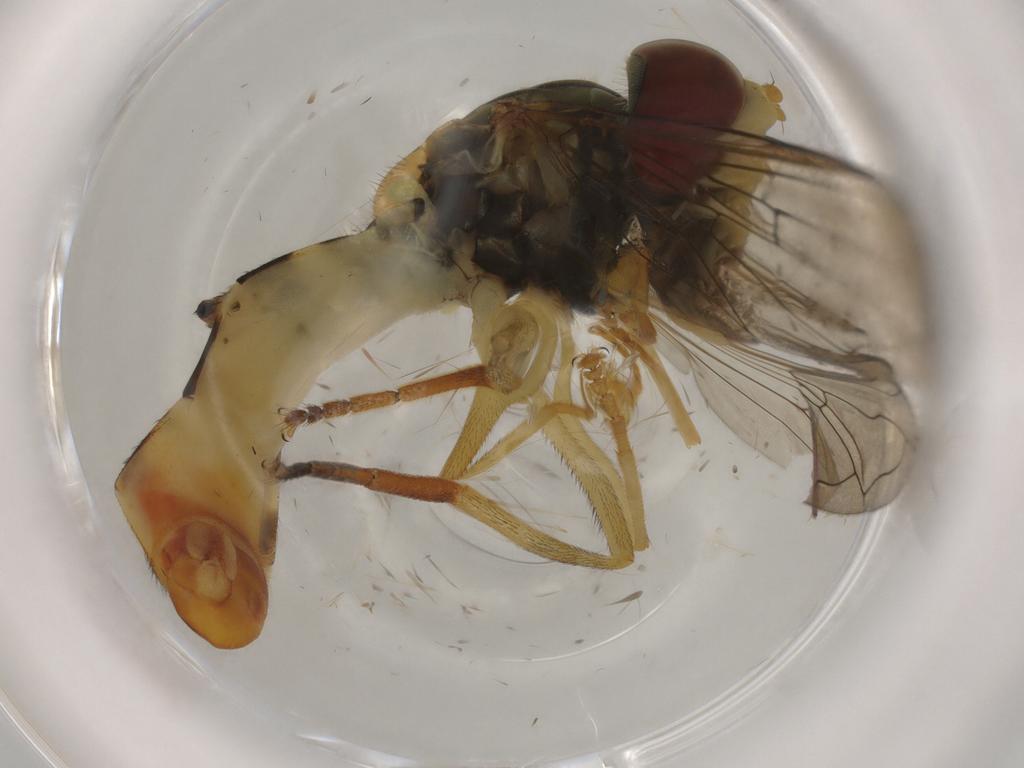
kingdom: Animalia
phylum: Arthropoda
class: Insecta
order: Diptera
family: Syrphidae
